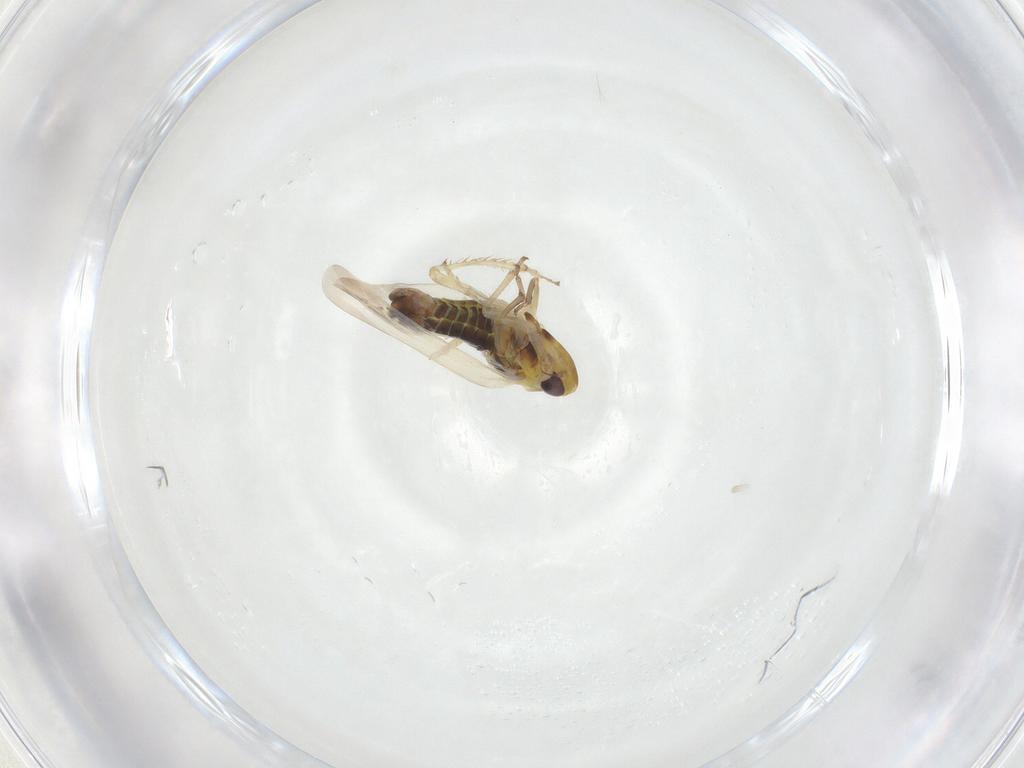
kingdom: Animalia
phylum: Arthropoda
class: Insecta
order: Hemiptera
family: Cicadellidae
